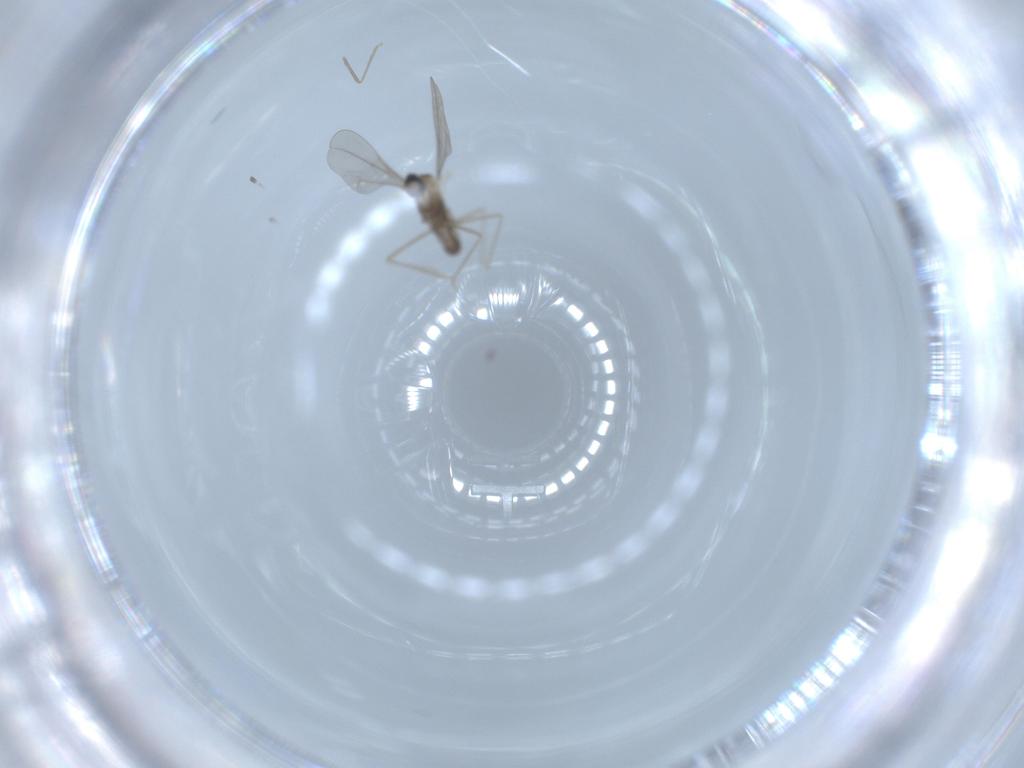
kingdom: Animalia
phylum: Arthropoda
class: Insecta
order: Diptera
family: Cecidomyiidae
